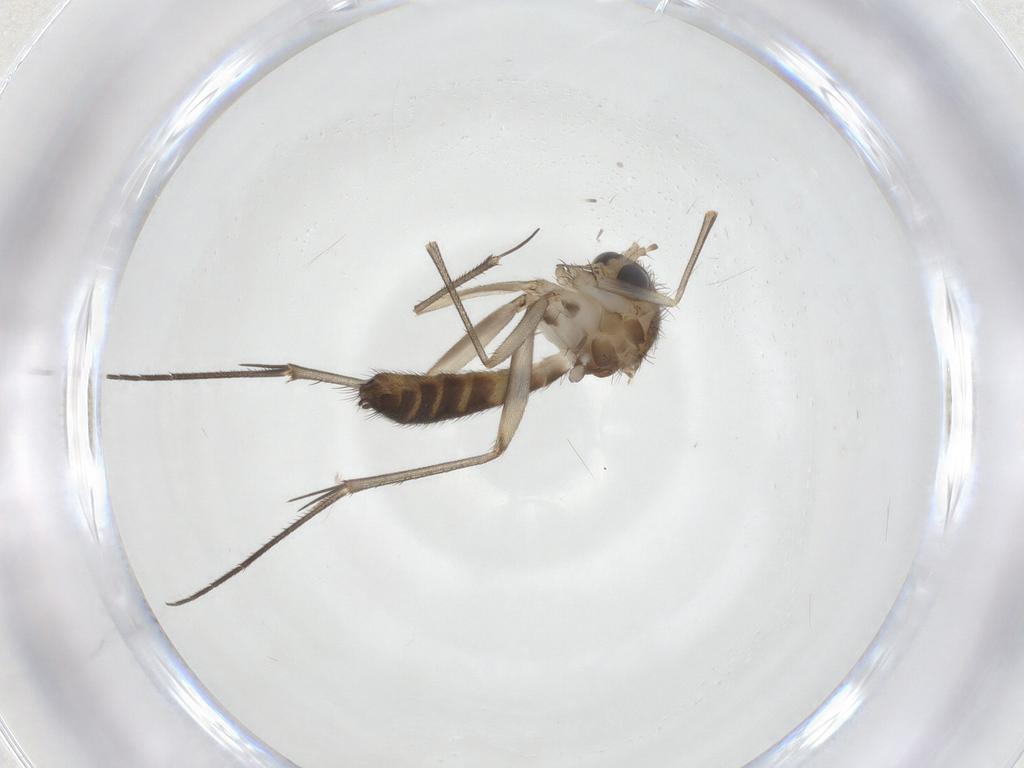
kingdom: Animalia
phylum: Arthropoda
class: Insecta
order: Diptera
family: Mycetophilidae
